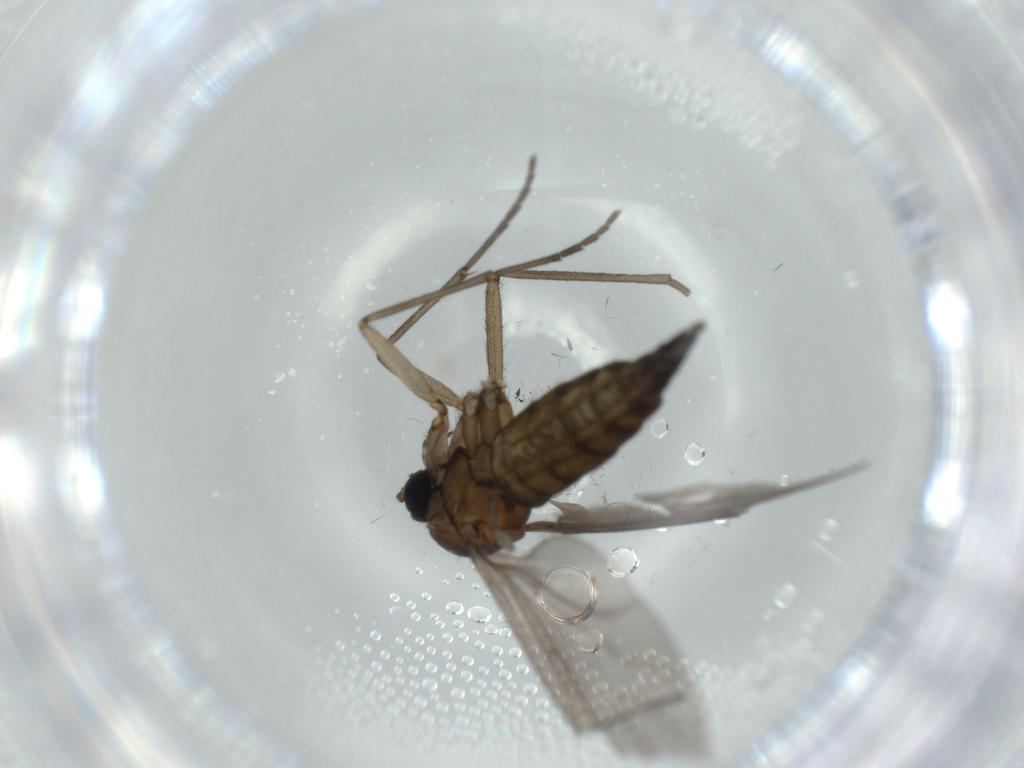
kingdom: Animalia
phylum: Arthropoda
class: Insecta
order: Diptera
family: Sciaridae
